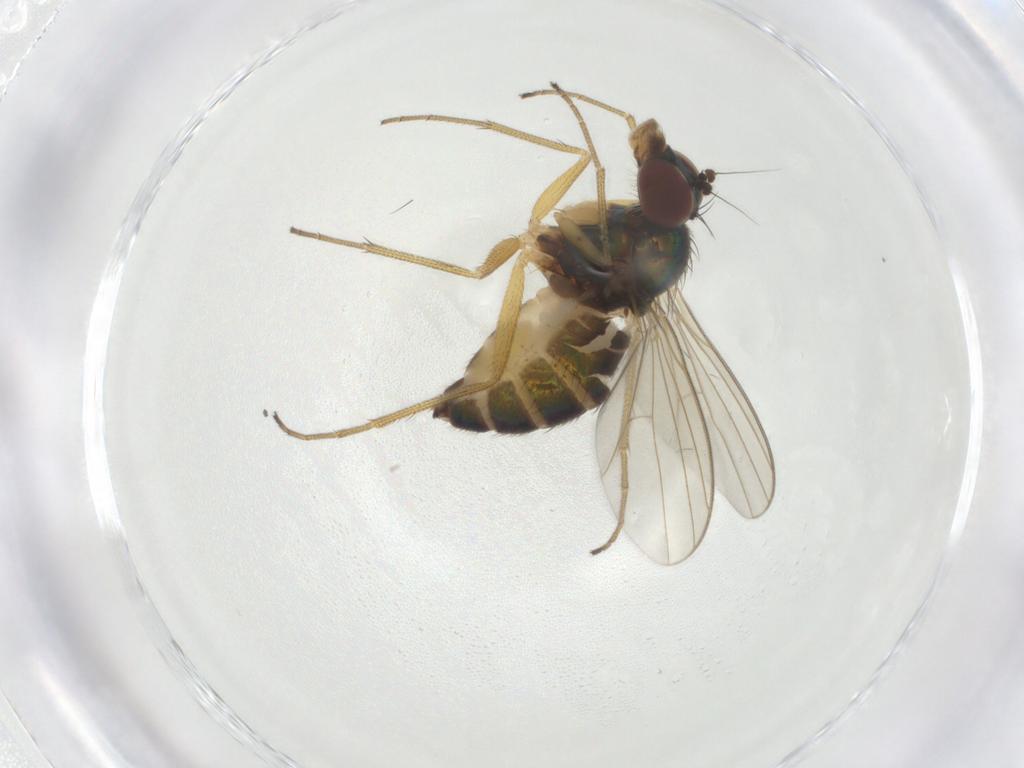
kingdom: Animalia
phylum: Arthropoda
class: Insecta
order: Diptera
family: Dolichopodidae
